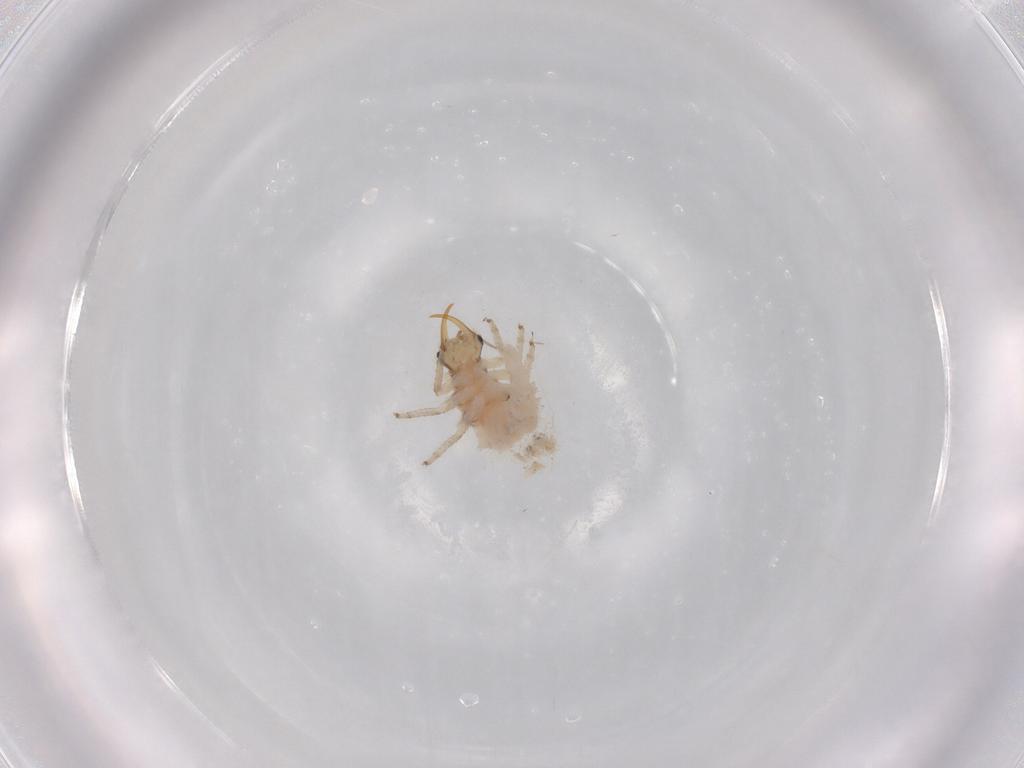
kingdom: Animalia
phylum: Arthropoda
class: Insecta
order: Neuroptera
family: Chrysopidae
